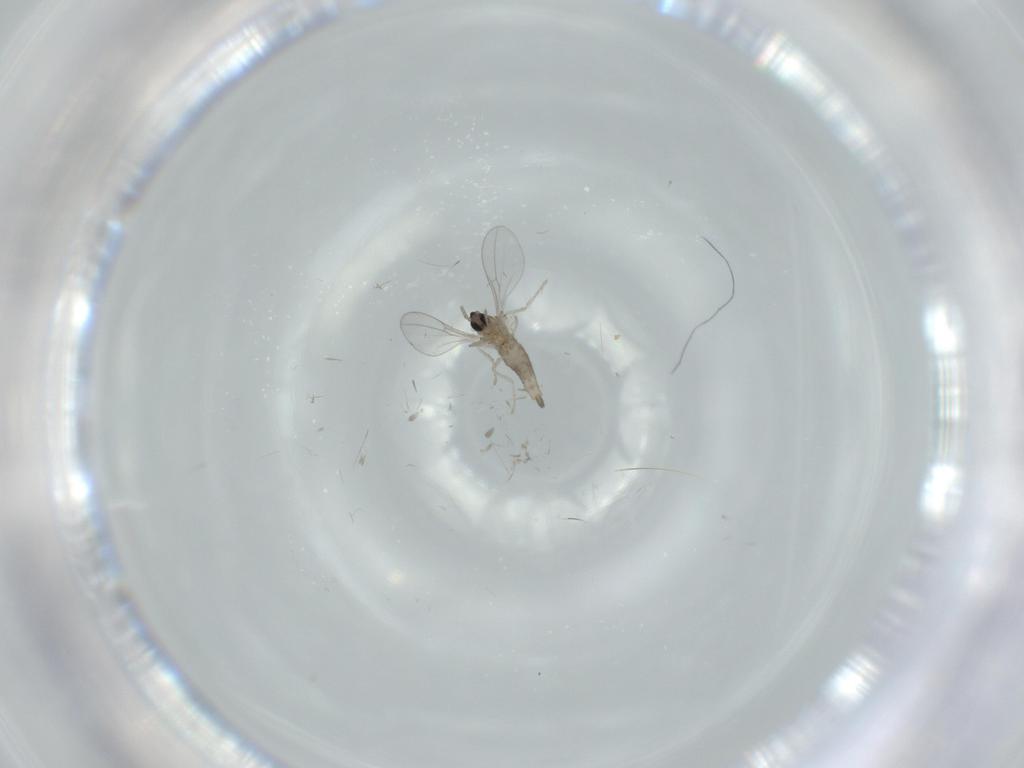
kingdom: Animalia
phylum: Arthropoda
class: Insecta
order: Diptera
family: Cecidomyiidae
